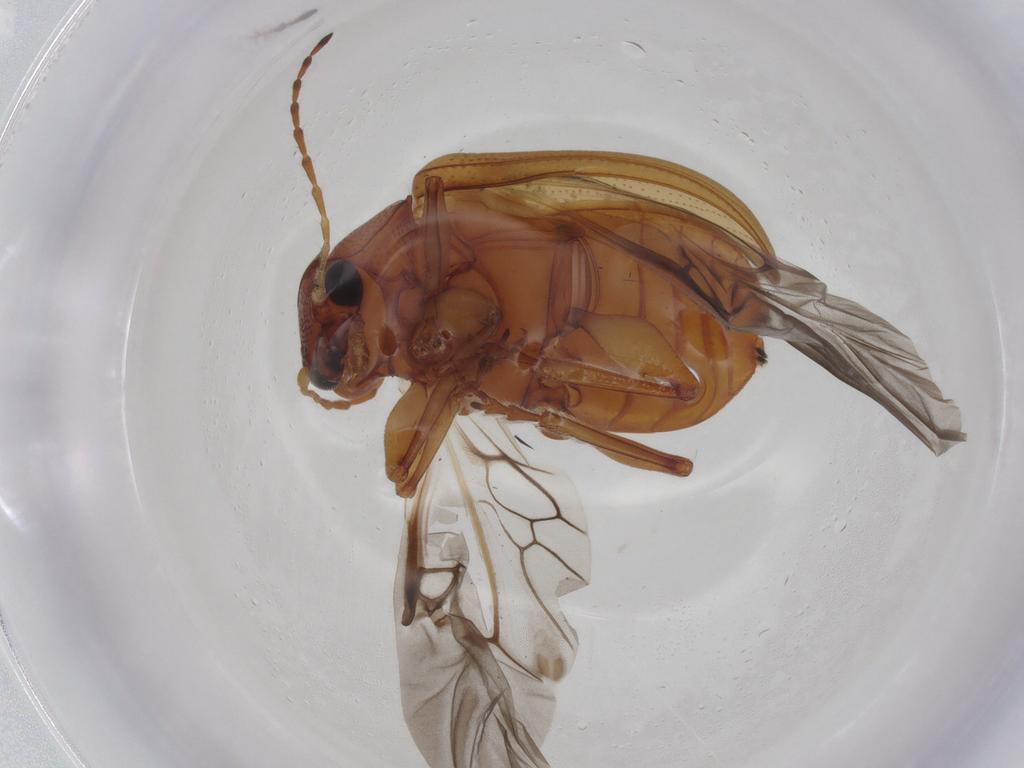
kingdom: Animalia
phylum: Arthropoda
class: Insecta
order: Coleoptera
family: Chrysomelidae
